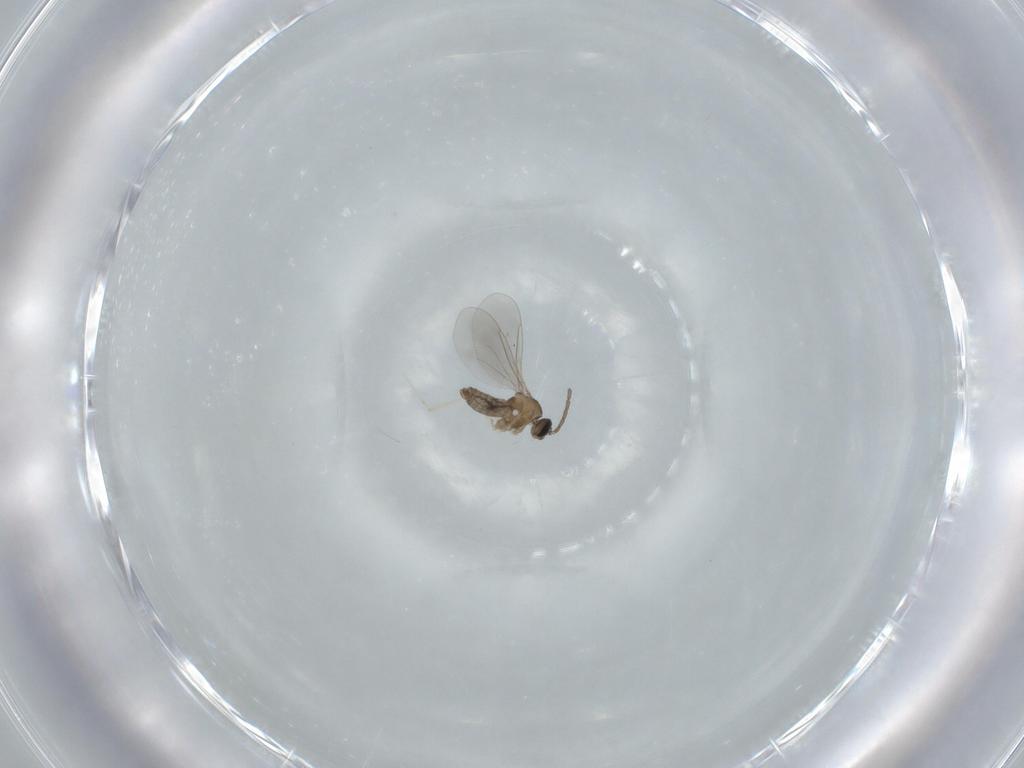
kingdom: Animalia
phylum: Arthropoda
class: Insecta
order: Diptera
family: Cecidomyiidae
